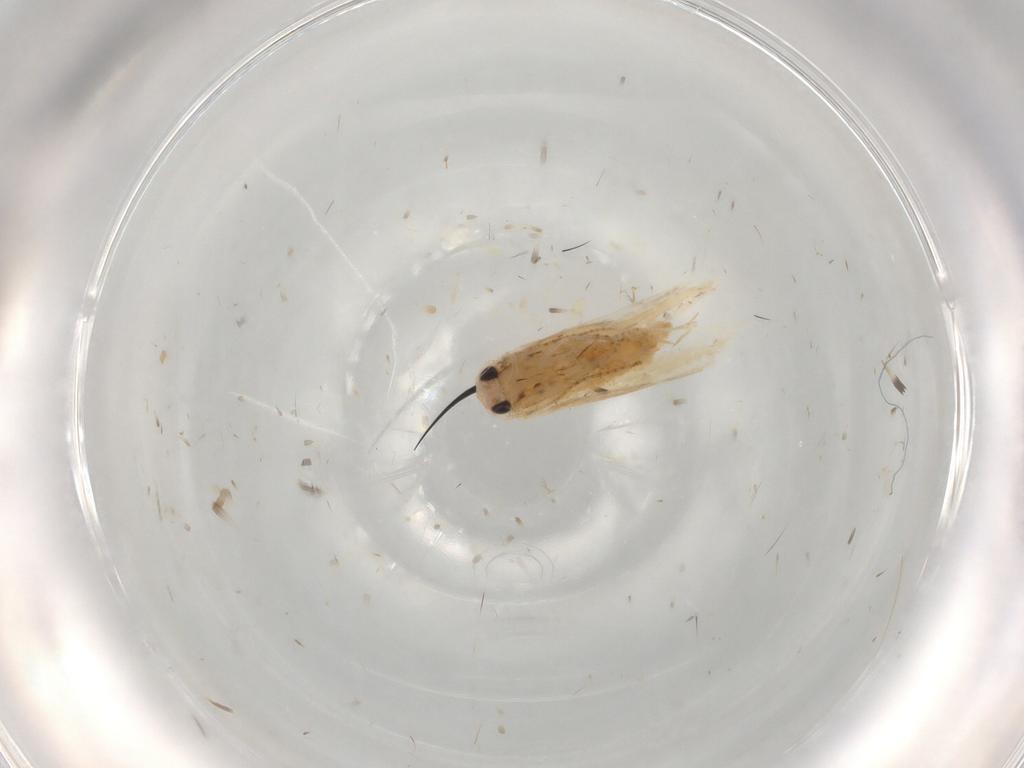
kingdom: Animalia
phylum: Arthropoda
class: Insecta
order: Lepidoptera
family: Bucculatricidae
